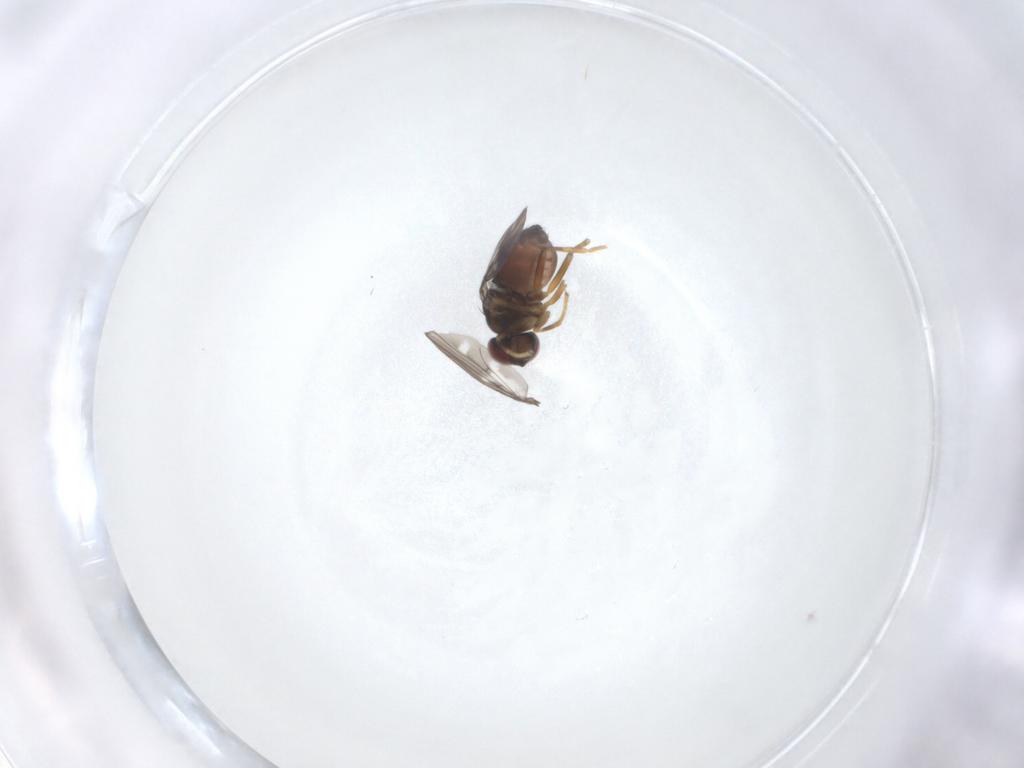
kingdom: Animalia
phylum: Arthropoda
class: Insecta
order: Diptera
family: Ephydridae
